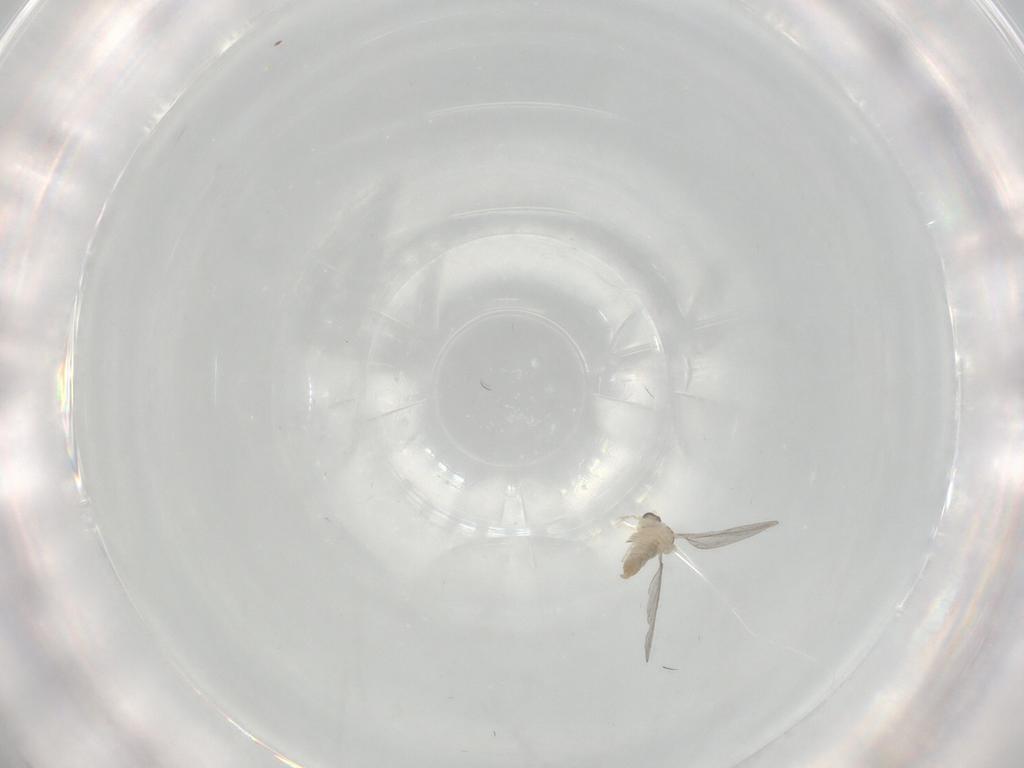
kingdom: Animalia
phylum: Arthropoda
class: Insecta
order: Diptera
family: Cecidomyiidae
